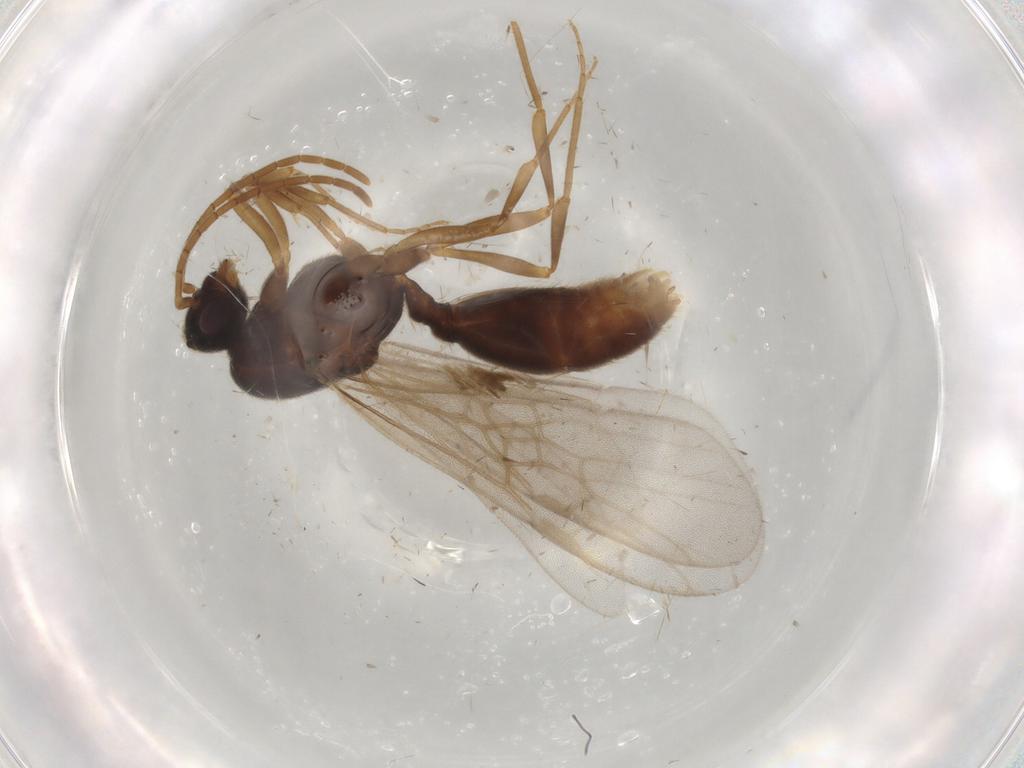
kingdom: Animalia
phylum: Arthropoda
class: Insecta
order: Hymenoptera
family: Formicidae
